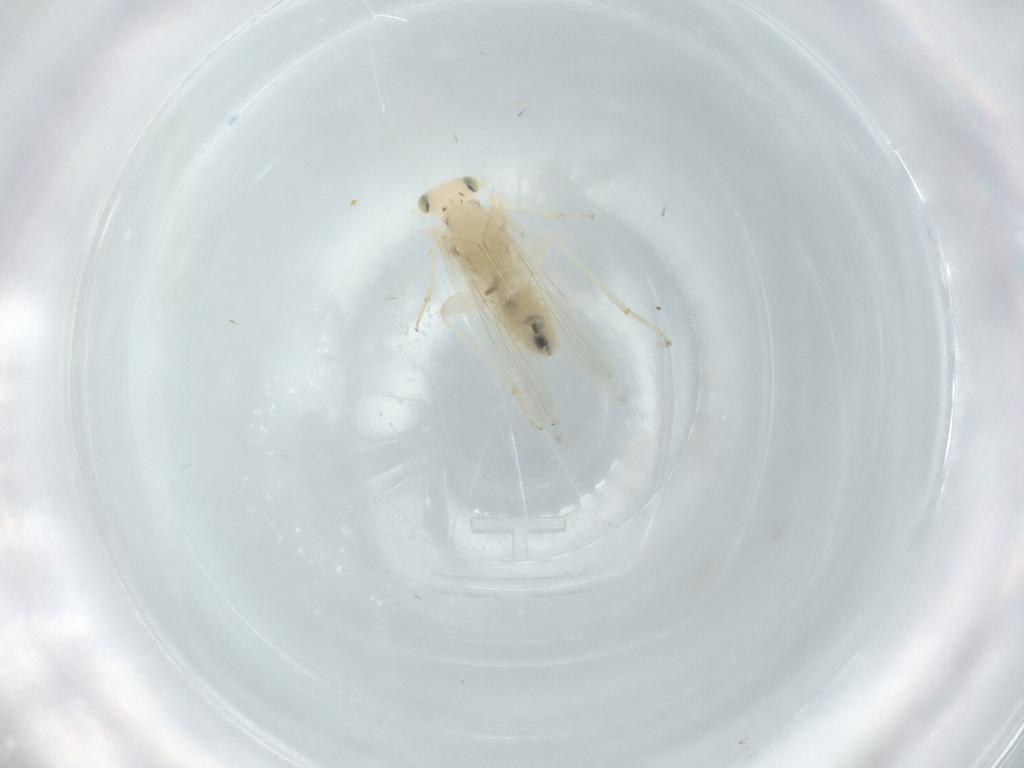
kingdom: Animalia
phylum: Arthropoda
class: Insecta
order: Psocodea
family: Lepidopsocidae
